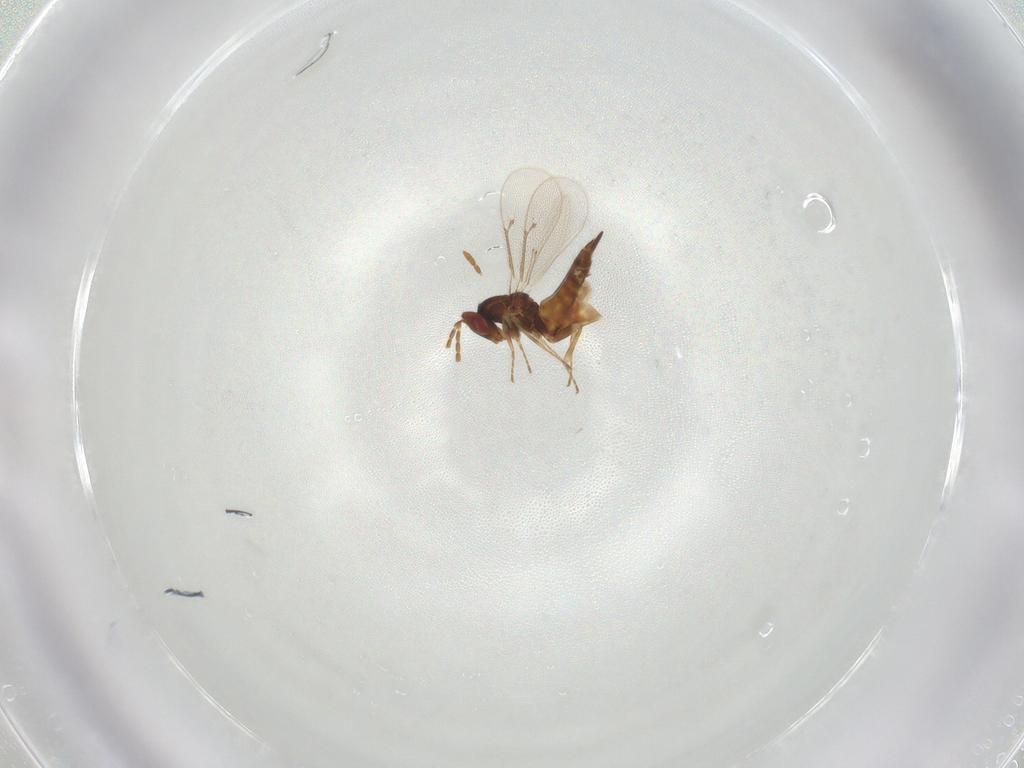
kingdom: Animalia
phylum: Arthropoda
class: Insecta
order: Hymenoptera
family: Eulophidae
